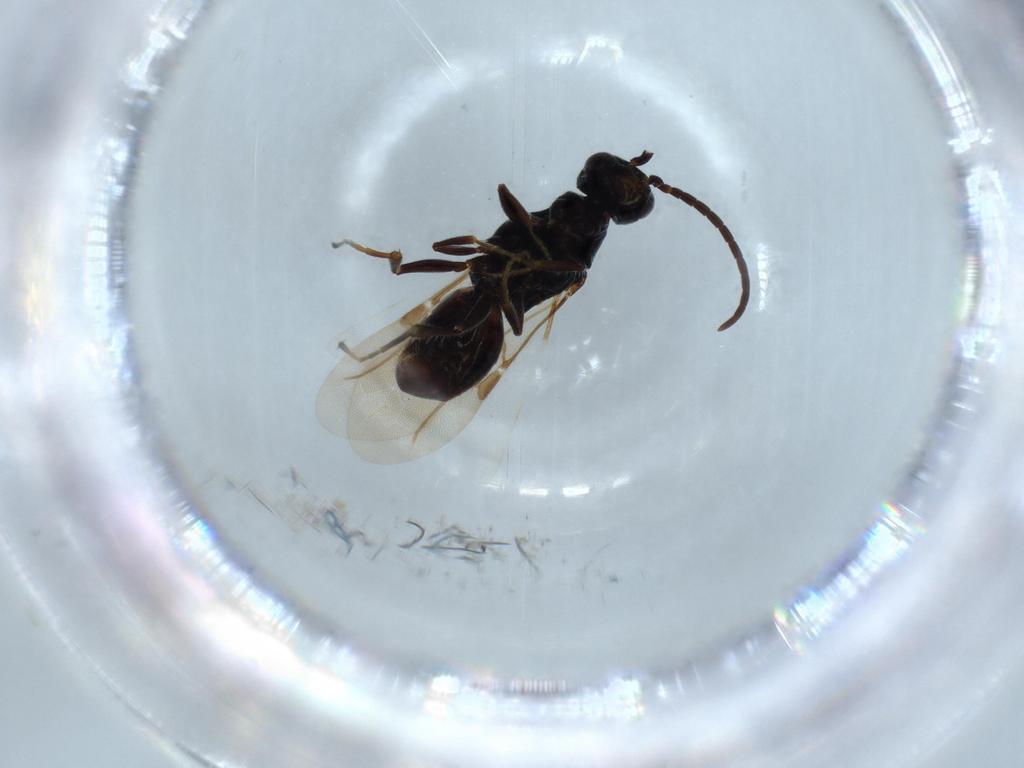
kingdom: Animalia
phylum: Arthropoda
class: Insecta
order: Hymenoptera
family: Bethylidae
